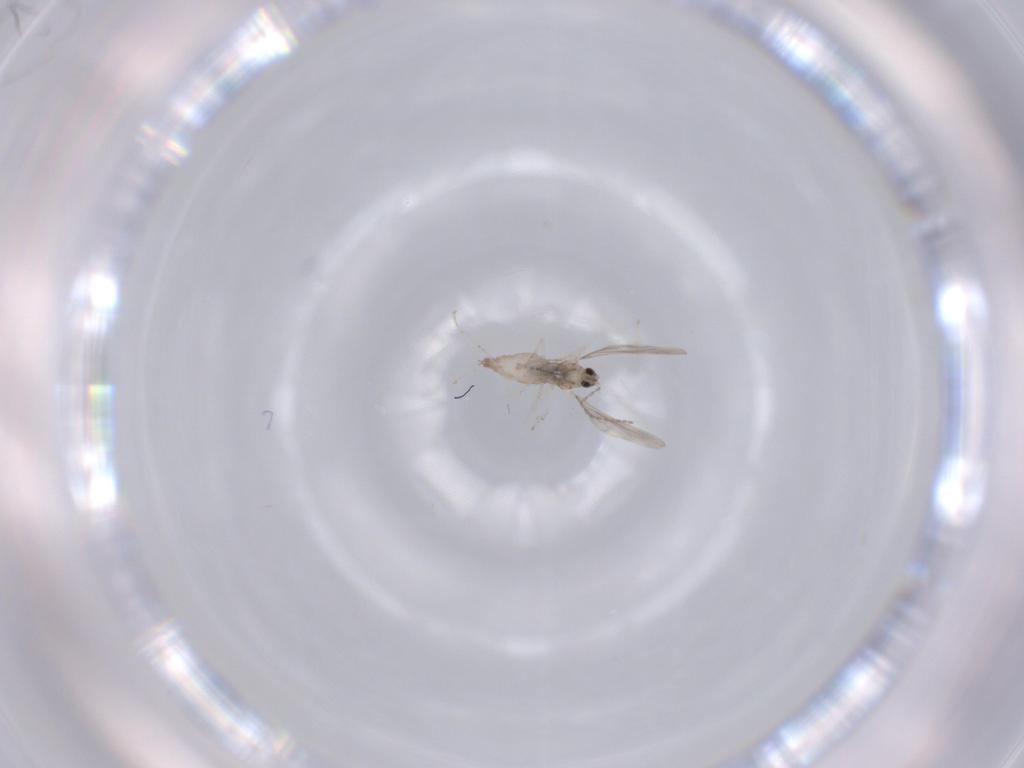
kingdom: Animalia
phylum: Arthropoda
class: Insecta
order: Diptera
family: Cecidomyiidae
